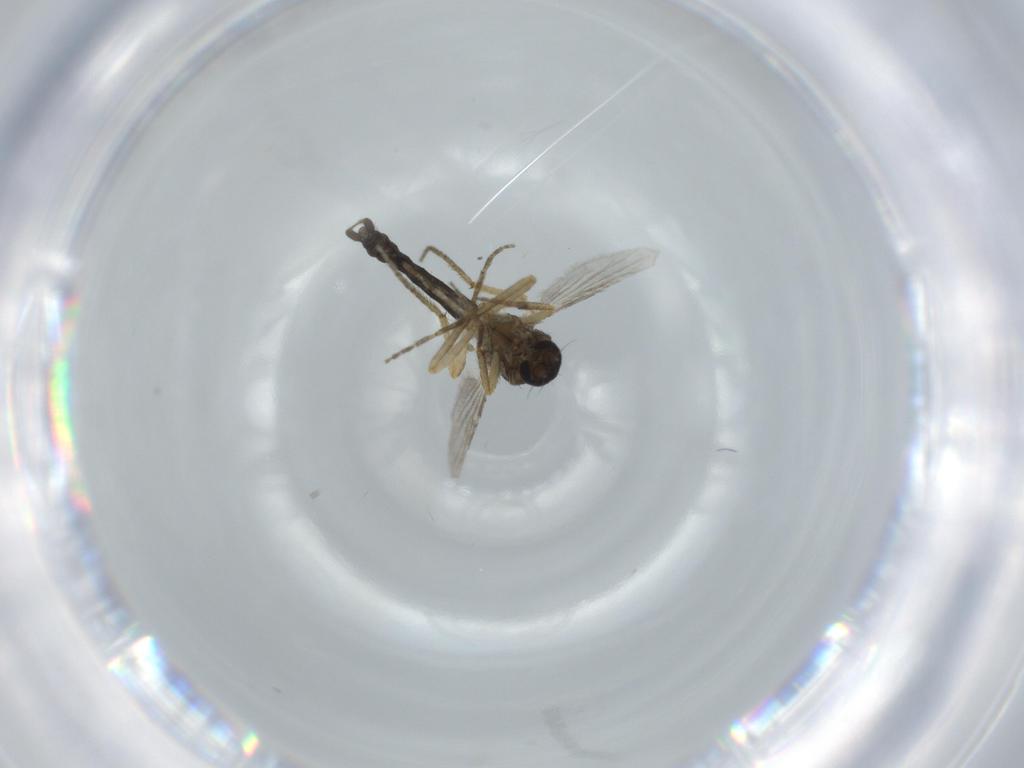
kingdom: Animalia
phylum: Arthropoda
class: Insecta
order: Diptera
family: Ceratopogonidae
